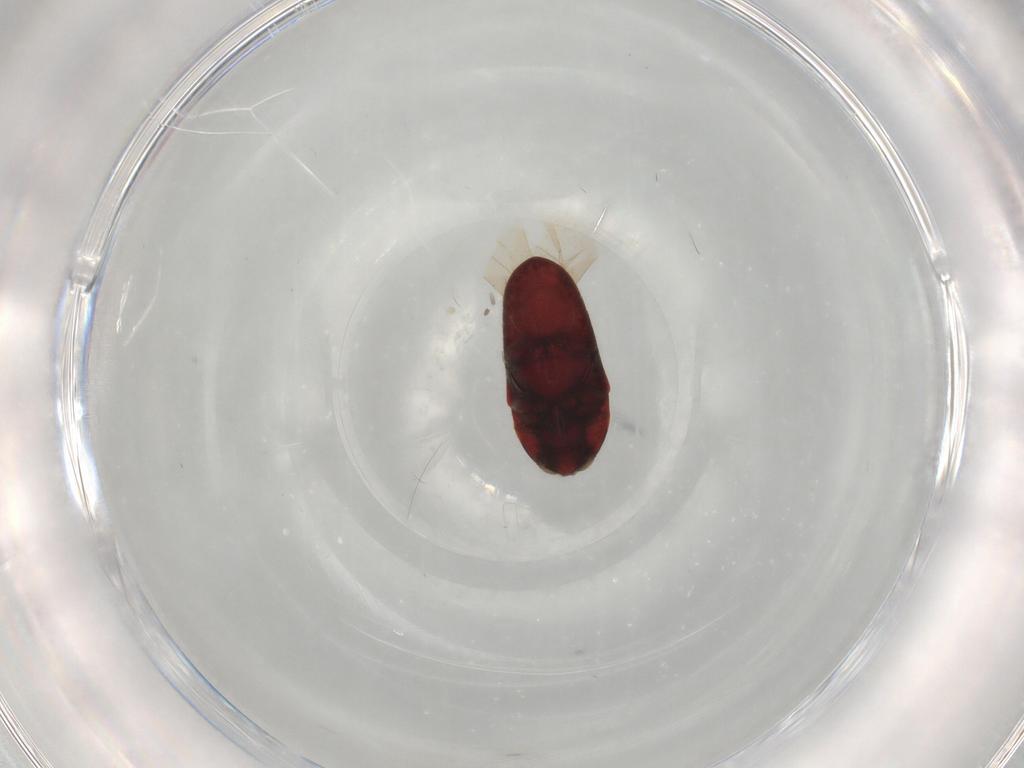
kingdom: Animalia
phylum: Arthropoda
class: Insecta
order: Coleoptera
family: Throscidae
